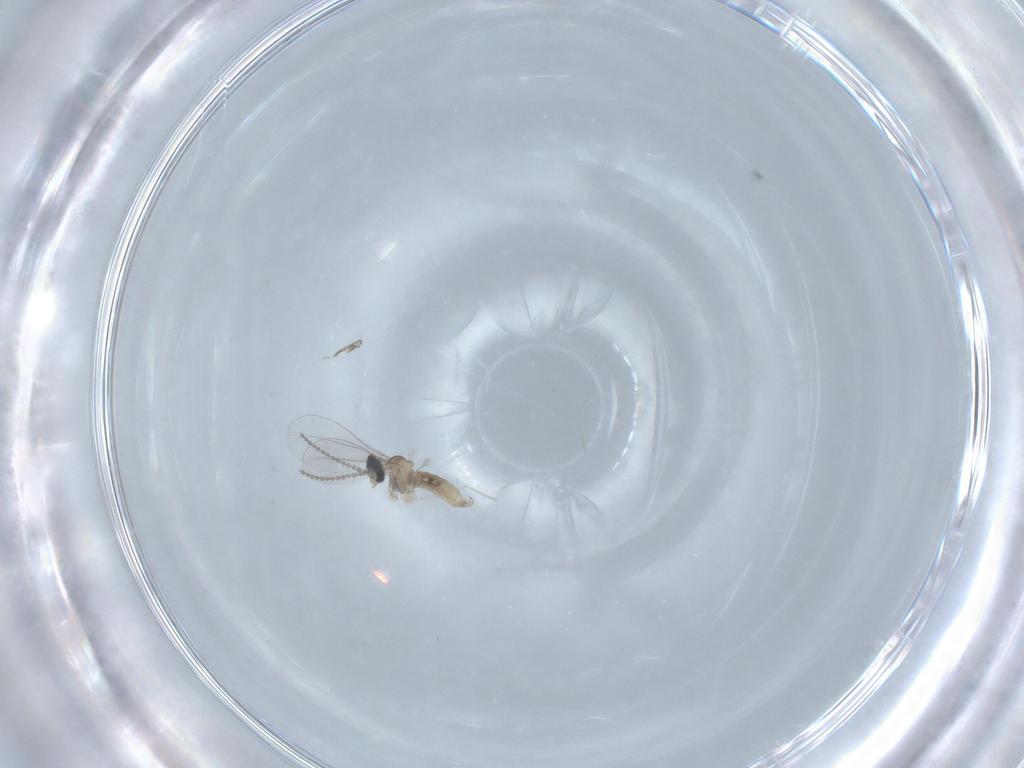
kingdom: Animalia
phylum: Arthropoda
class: Insecta
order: Diptera
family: Cecidomyiidae
